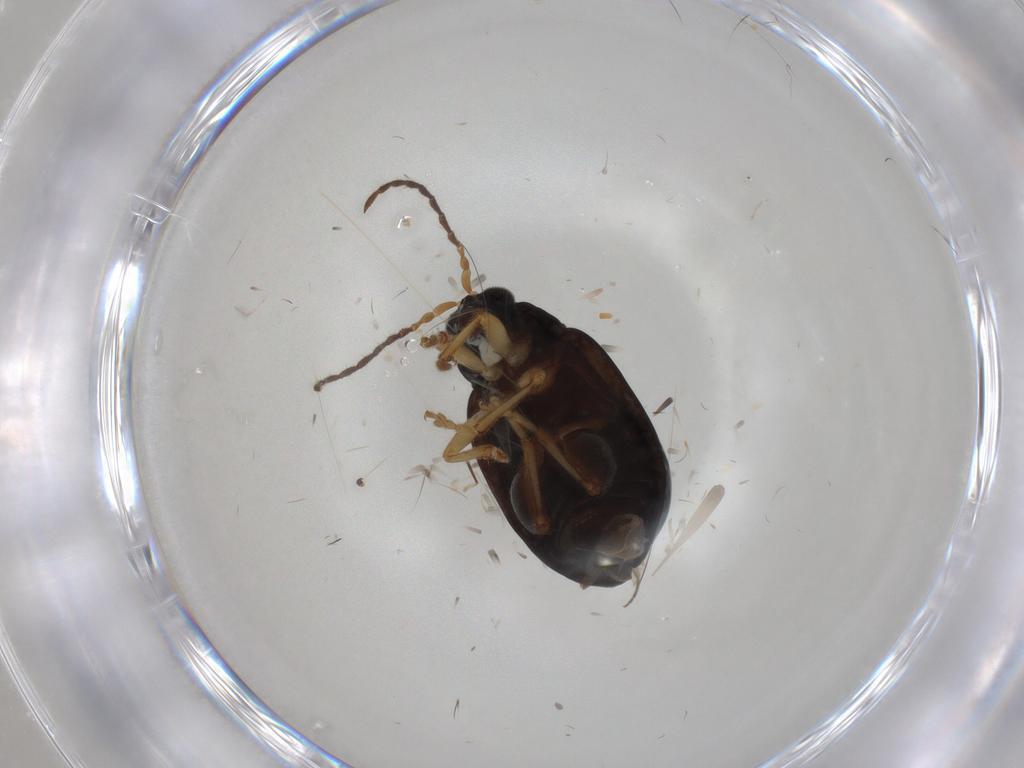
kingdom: Animalia
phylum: Arthropoda
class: Insecta
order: Coleoptera
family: Chrysomelidae
